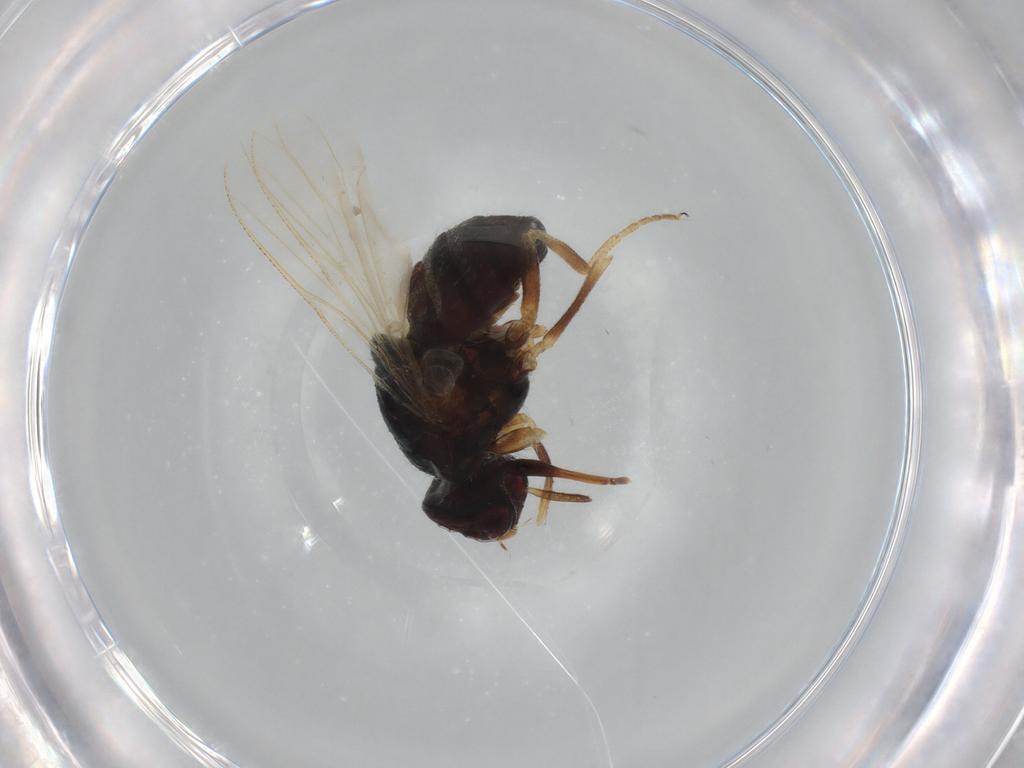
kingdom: Animalia
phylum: Arthropoda
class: Insecta
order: Diptera
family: Muscidae
